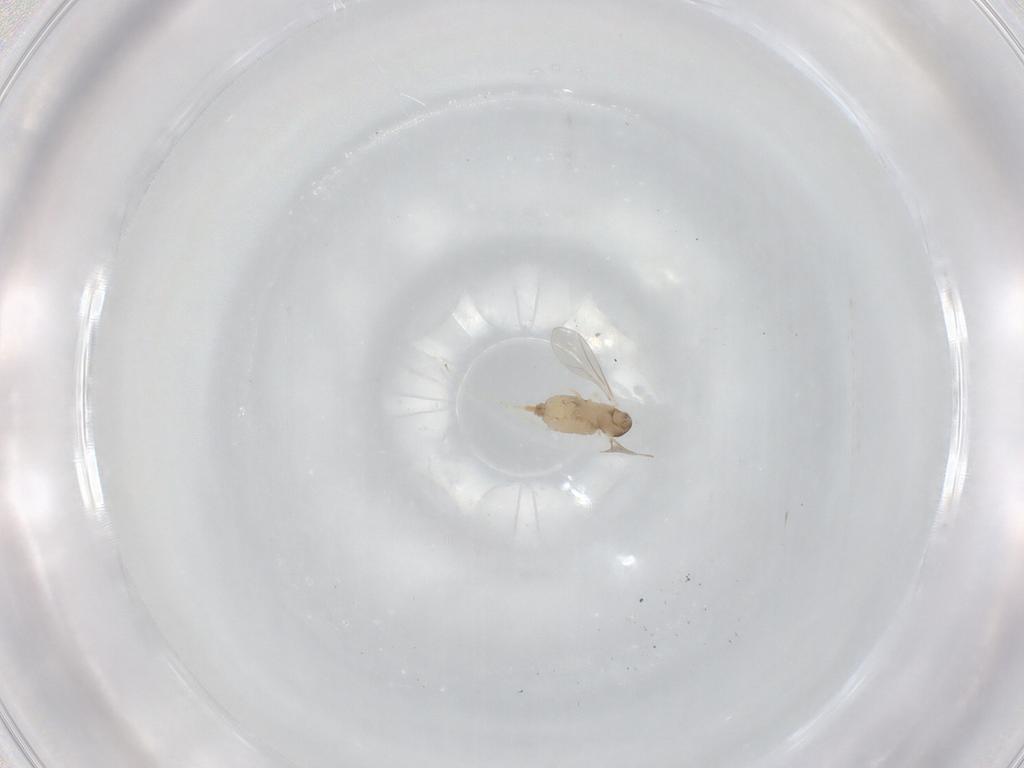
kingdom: Animalia
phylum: Arthropoda
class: Insecta
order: Diptera
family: Cecidomyiidae
